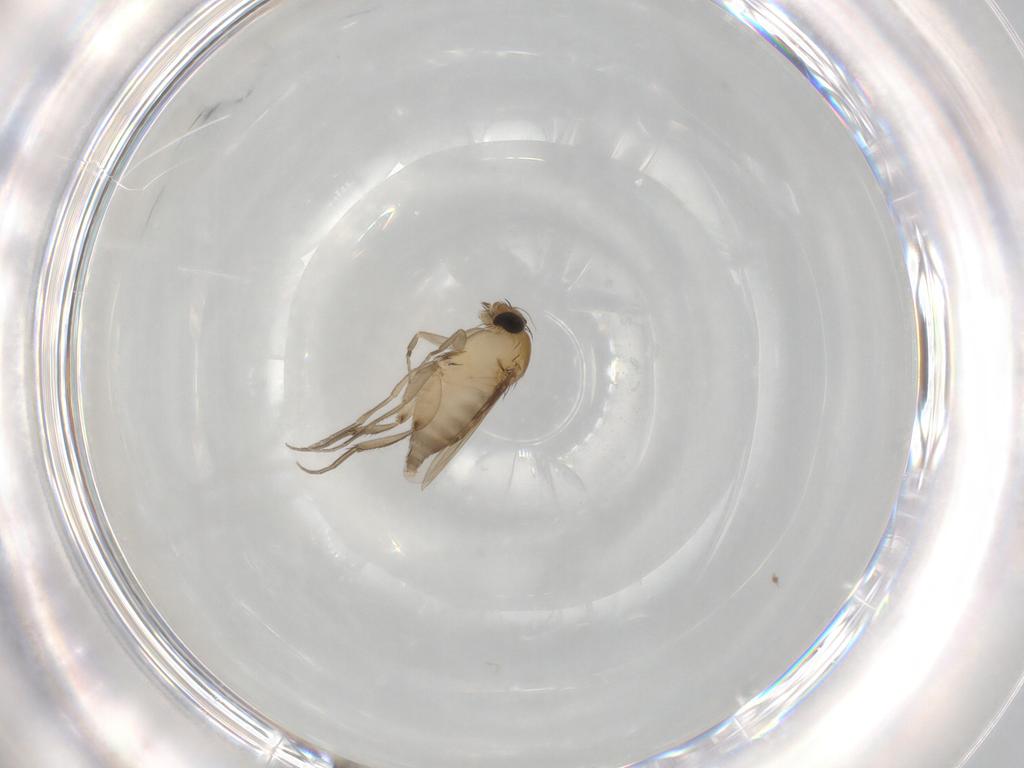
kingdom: Animalia
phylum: Arthropoda
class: Insecta
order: Diptera
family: Phoridae
